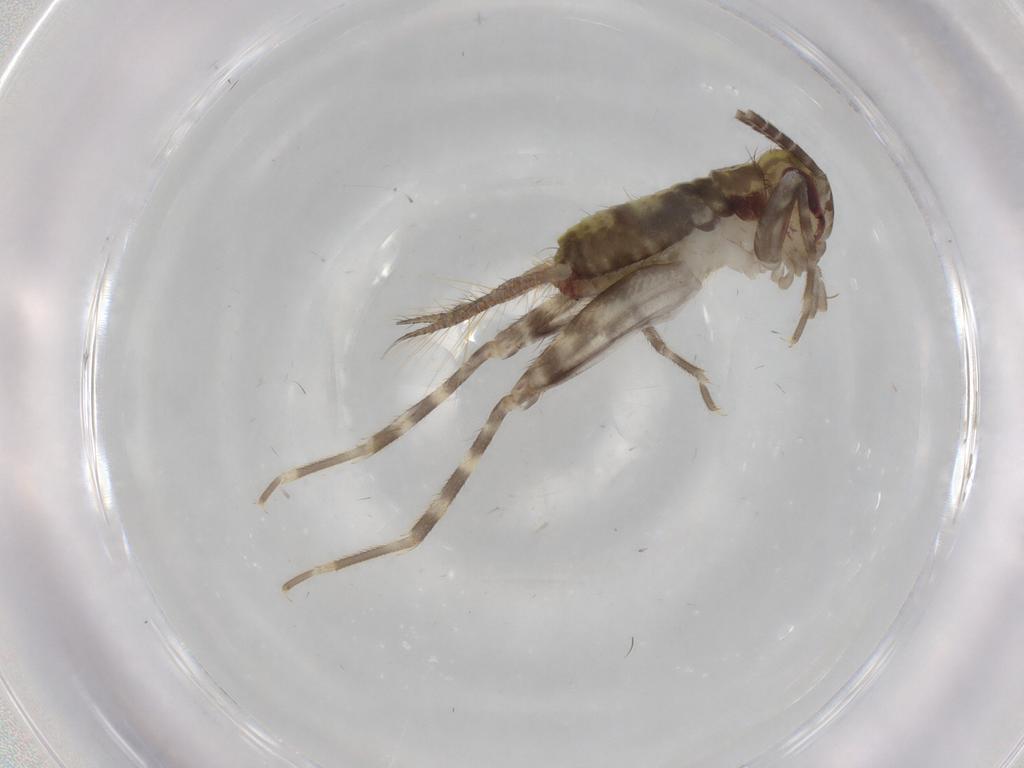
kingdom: Animalia
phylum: Arthropoda
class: Insecta
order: Orthoptera
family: Gryllidae
